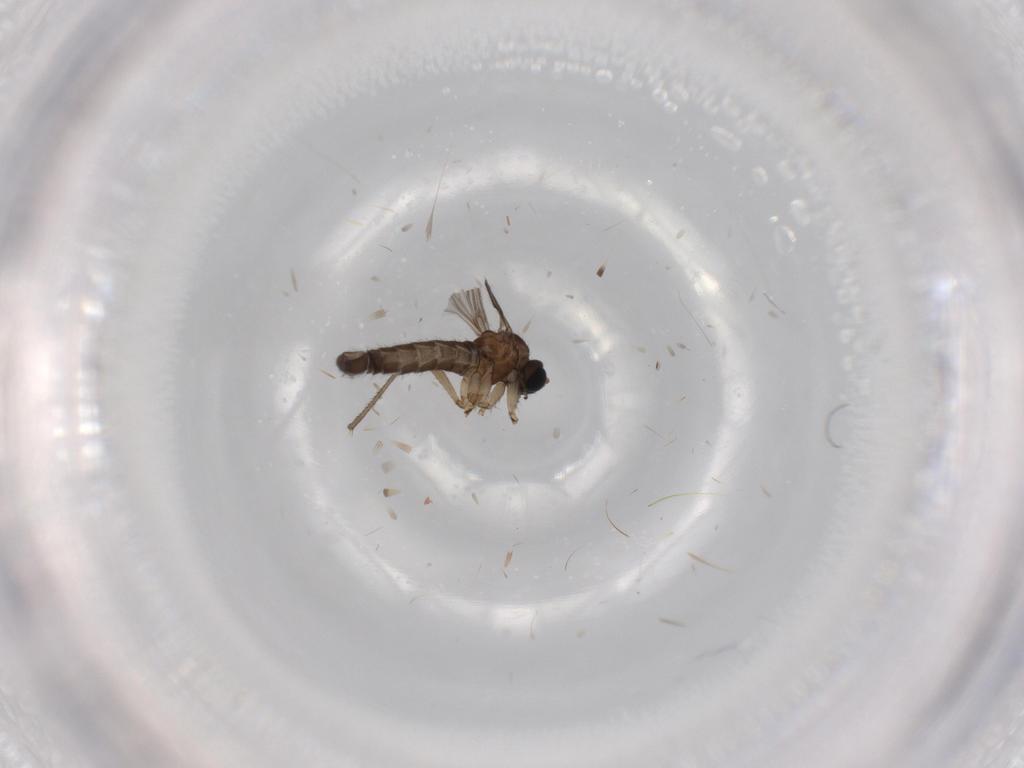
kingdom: Animalia
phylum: Arthropoda
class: Insecta
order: Diptera
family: Sciaridae
